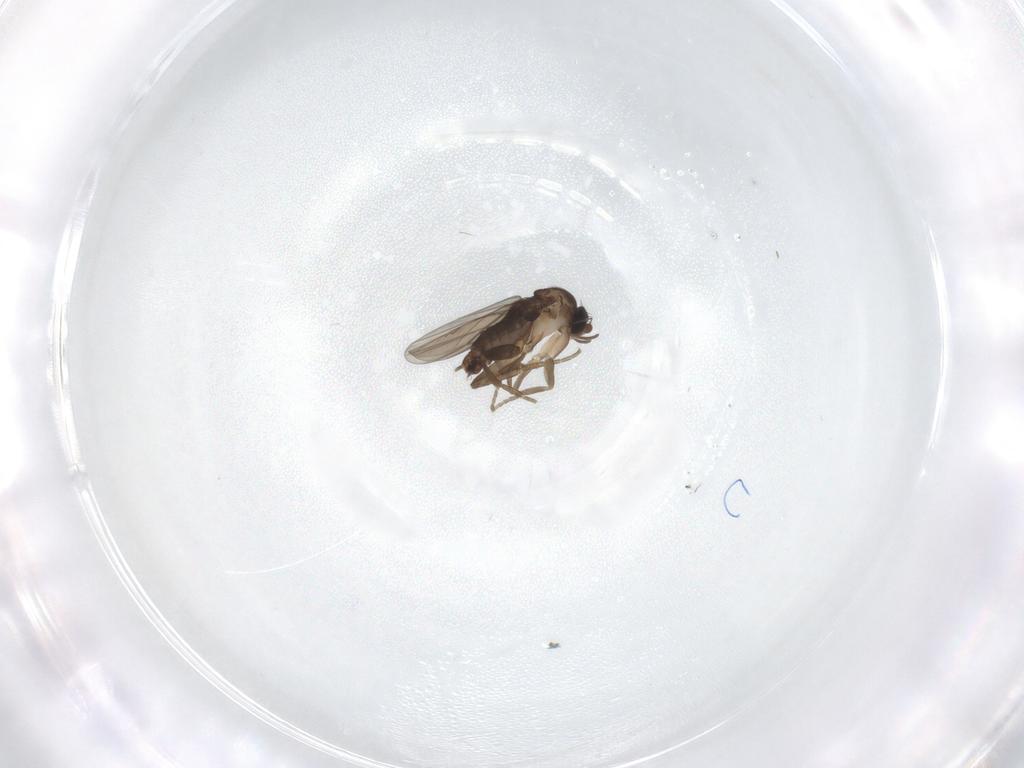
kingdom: Animalia
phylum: Arthropoda
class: Insecta
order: Diptera
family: Phoridae
